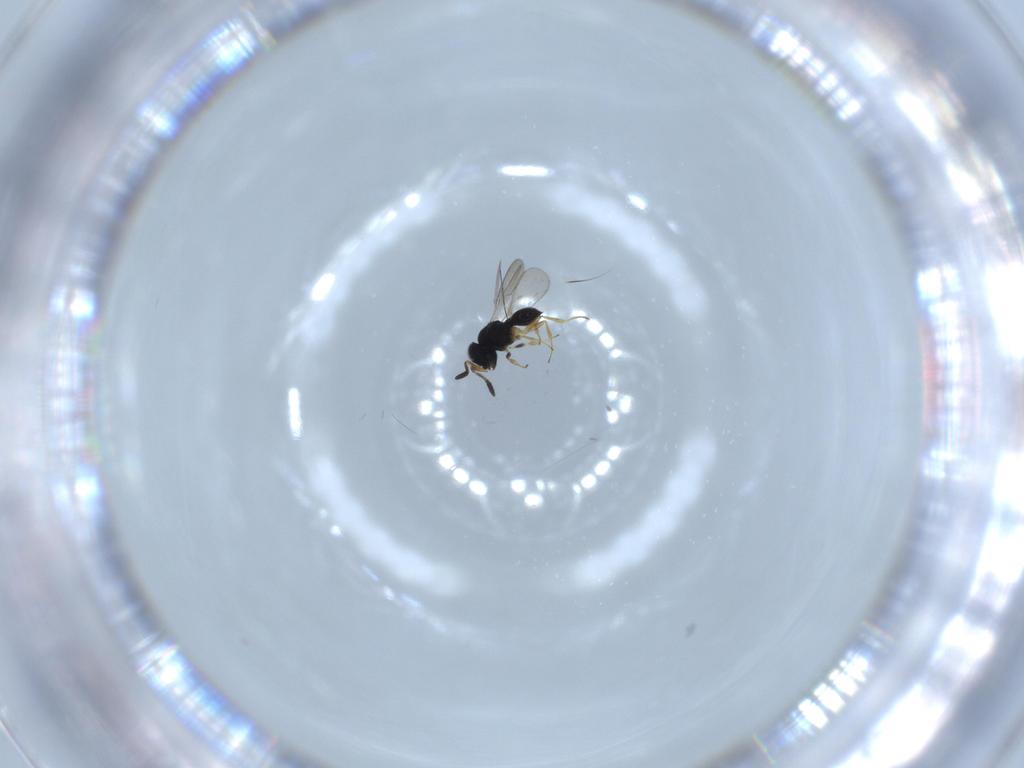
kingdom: Animalia
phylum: Arthropoda
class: Insecta
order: Hymenoptera
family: Scelionidae
